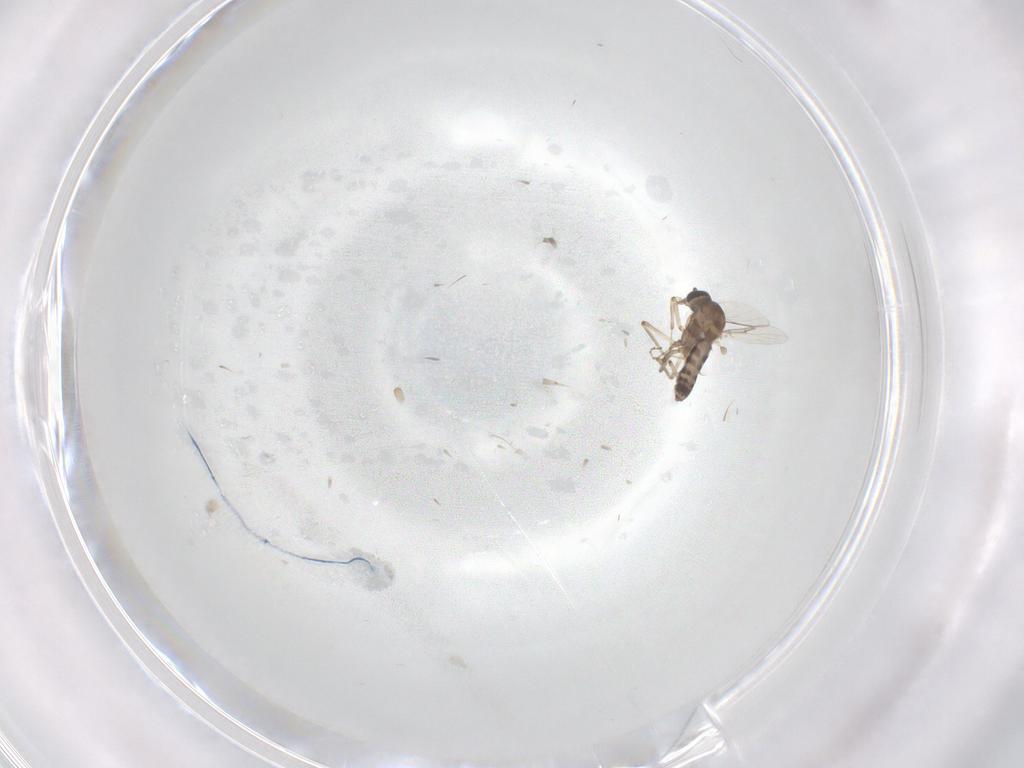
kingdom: Animalia
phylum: Arthropoda
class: Insecta
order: Diptera
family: Ceratopogonidae
